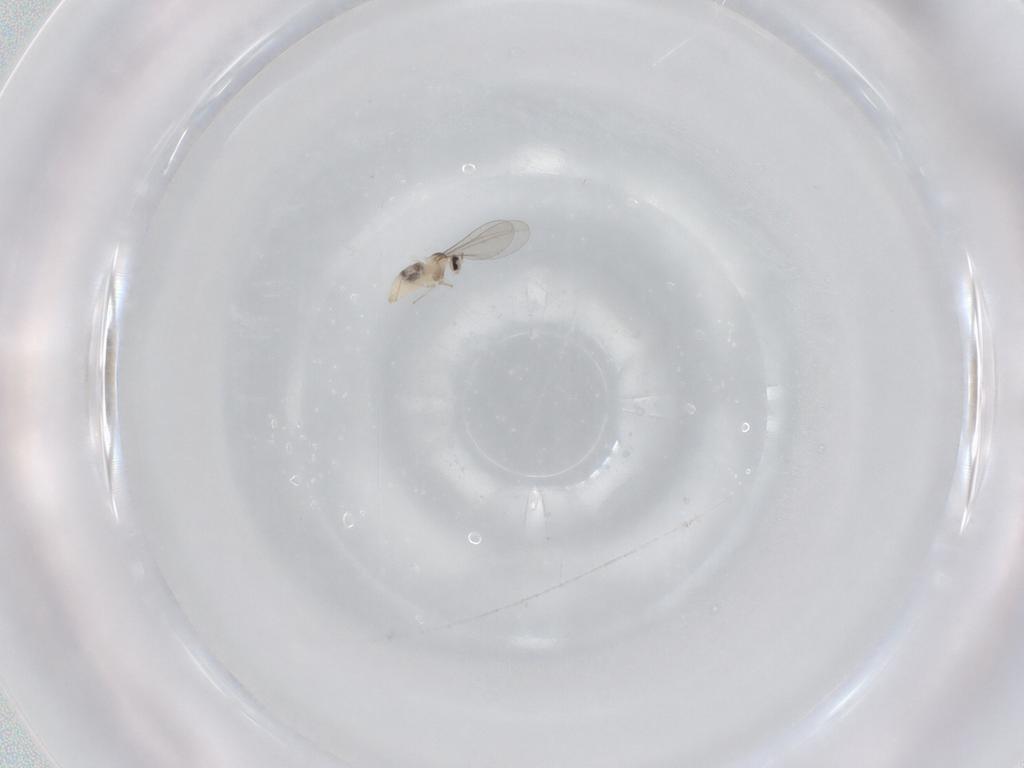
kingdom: Animalia
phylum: Arthropoda
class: Insecta
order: Diptera
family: Cecidomyiidae
